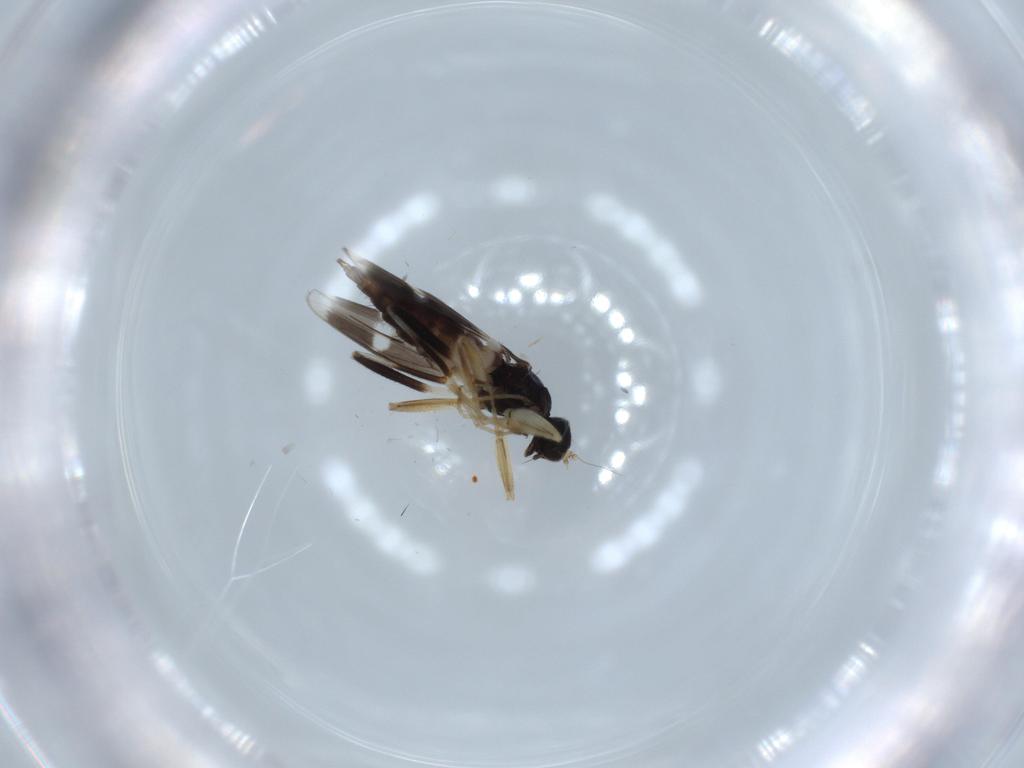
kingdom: Animalia
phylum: Arthropoda
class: Insecta
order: Diptera
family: Hybotidae
